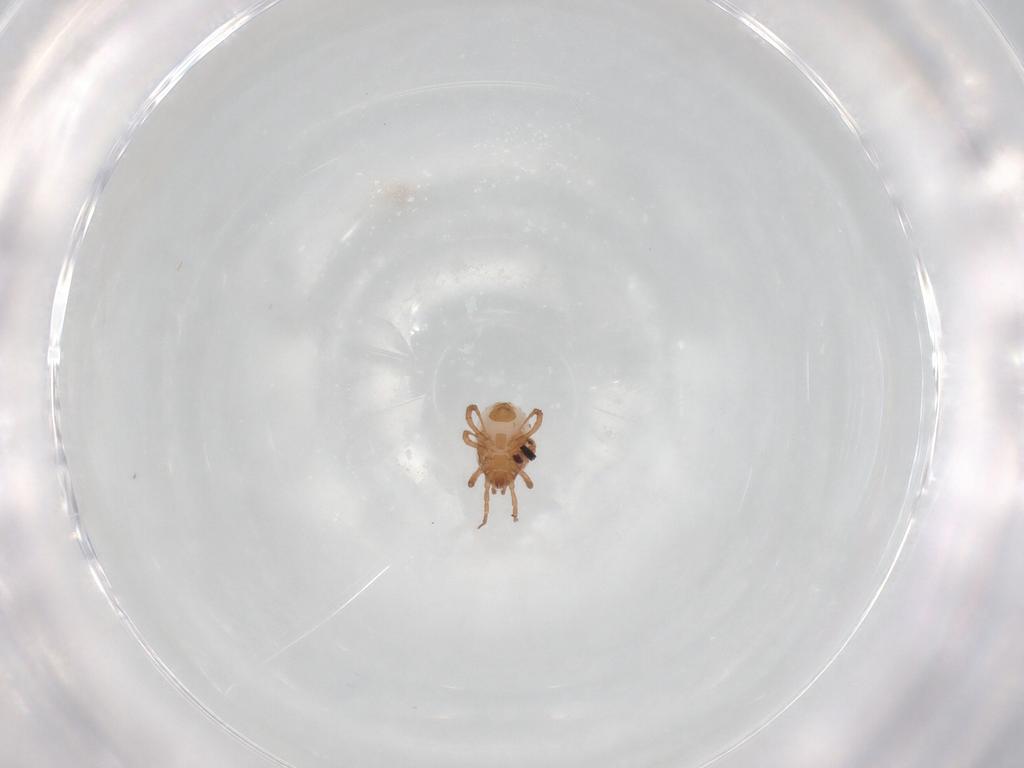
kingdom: Animalia
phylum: Arthropoda
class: Arachnida
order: Mesostigmata
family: Blattisociidae
